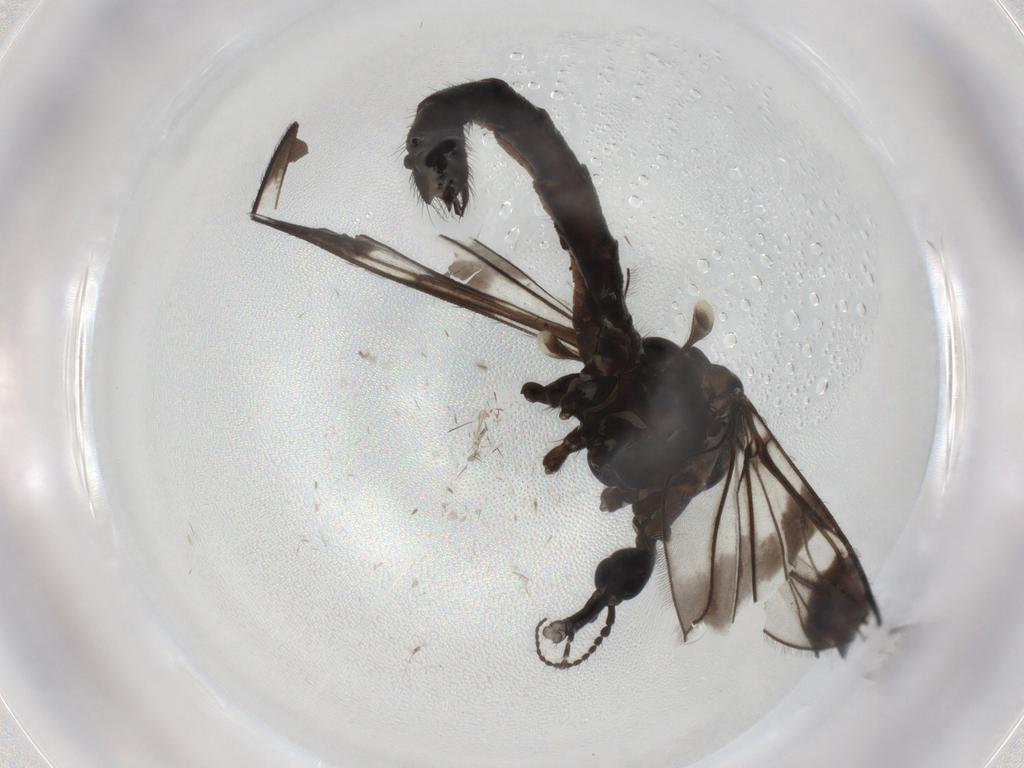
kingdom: Animalia
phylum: Arthropoda
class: Insecta
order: Diptera
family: Limoniidae
